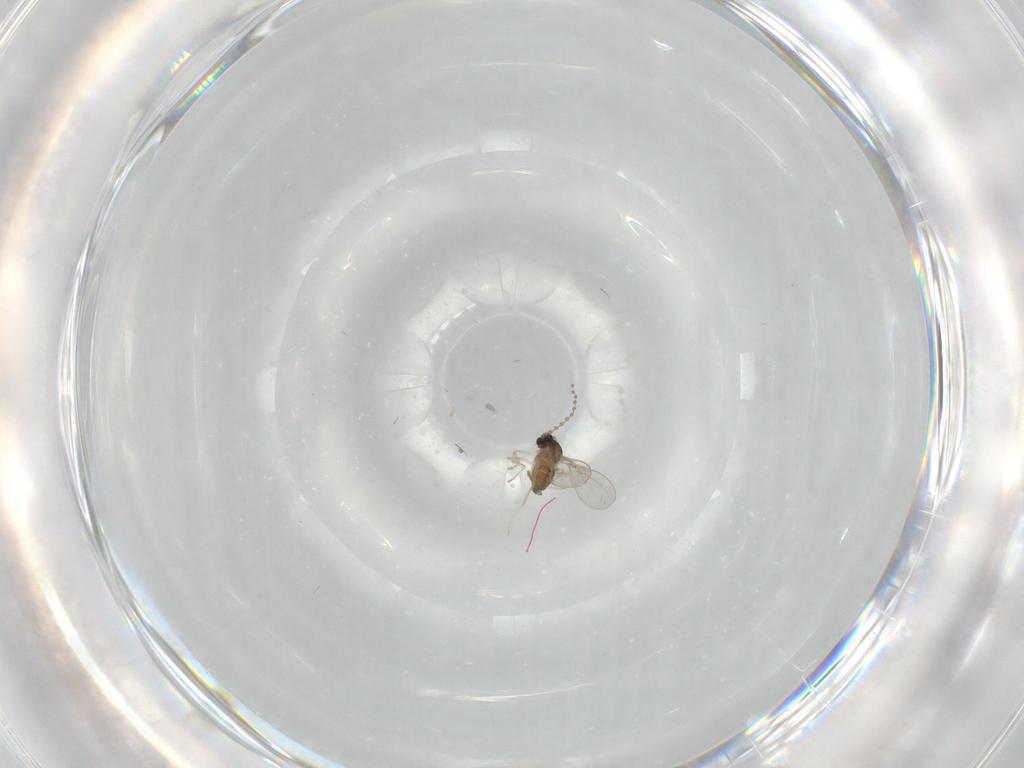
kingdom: Animalia
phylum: Arthropoda
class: Insecta
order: Diptera
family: Cecidomyiidae
